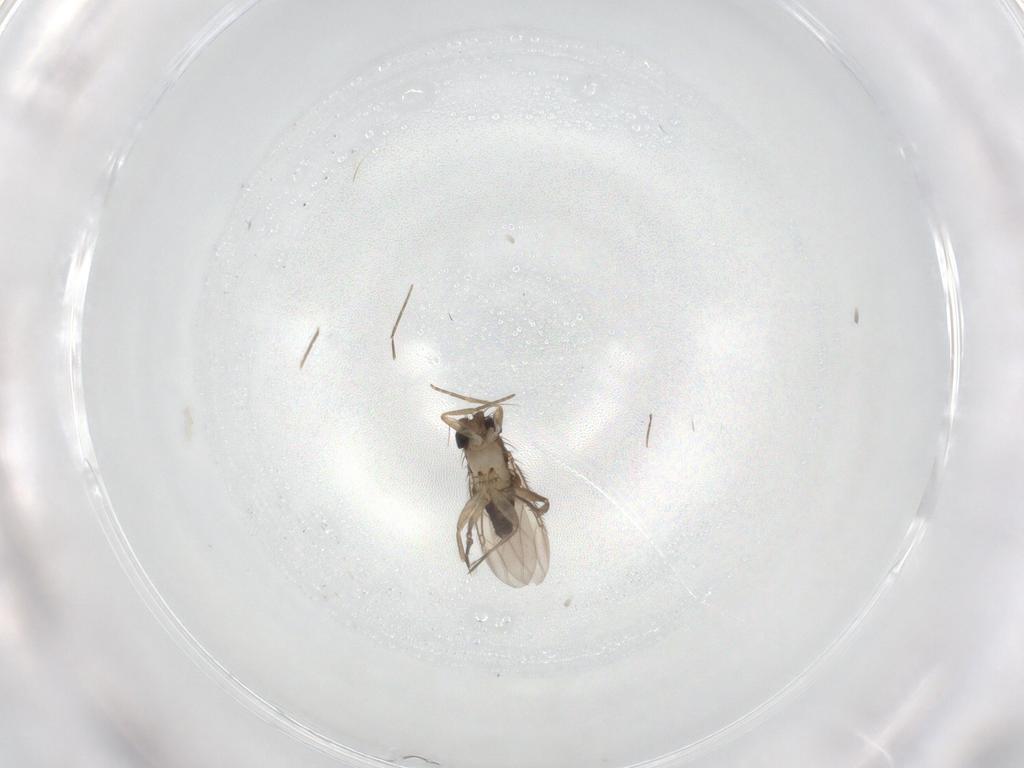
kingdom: Animalia
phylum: Arthropoda
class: Insecta
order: Diptera
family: Phoridae
